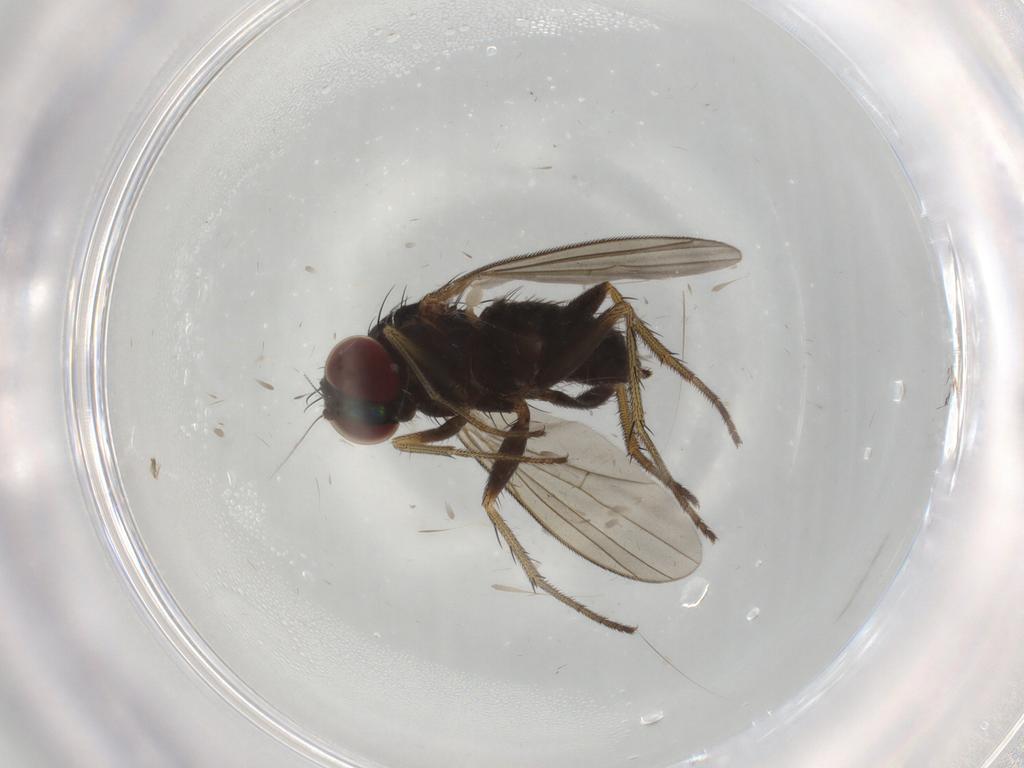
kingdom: Animalia
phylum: Arthropoda
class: Insecta
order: Diptera
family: Dolichopodidae
